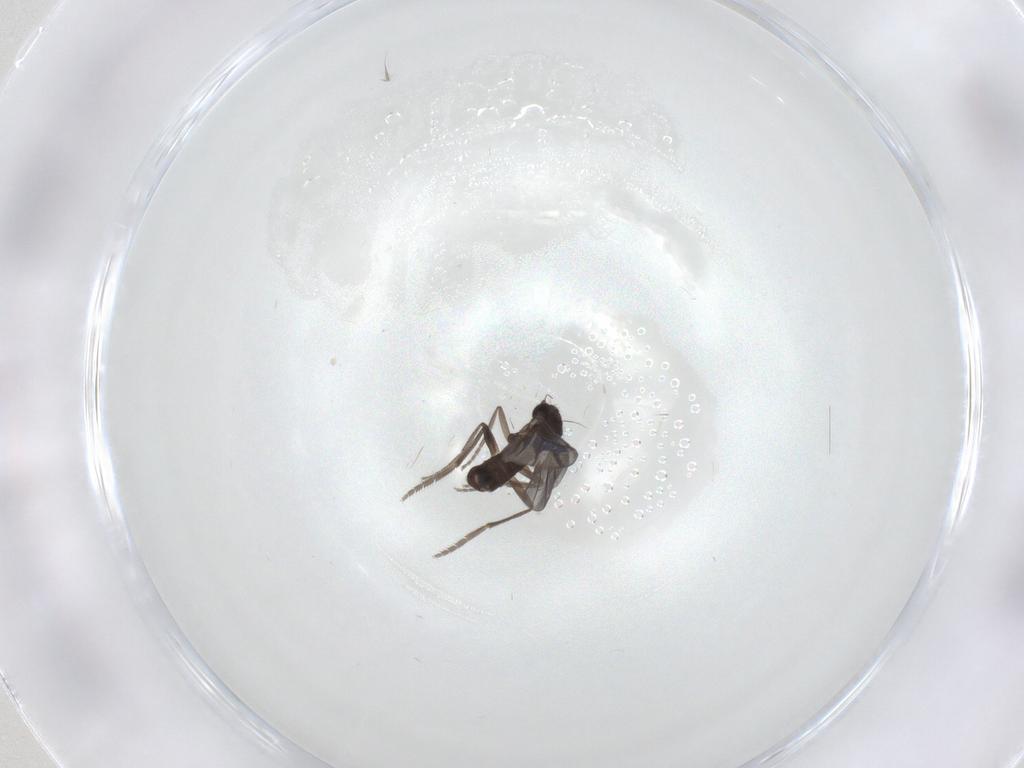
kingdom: Animalia
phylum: Arthropoda
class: Insecta
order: Diptera
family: Phoridae
